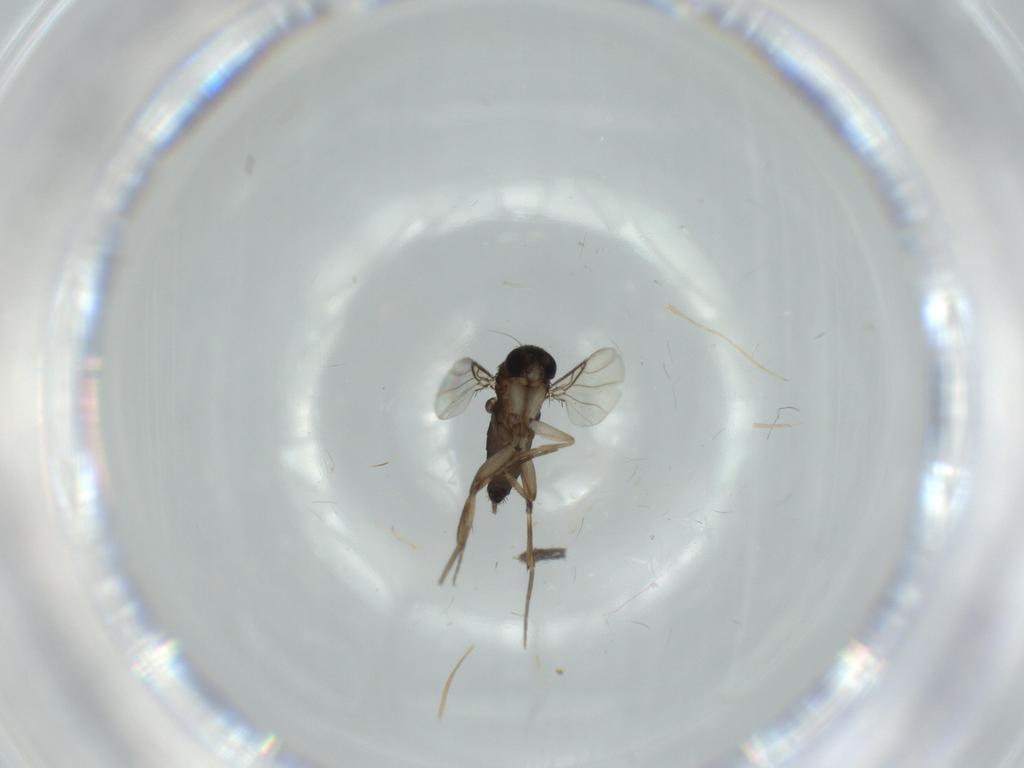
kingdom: Animalia
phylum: Arthropoda
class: Insecta
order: Diptera
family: Phoridae
